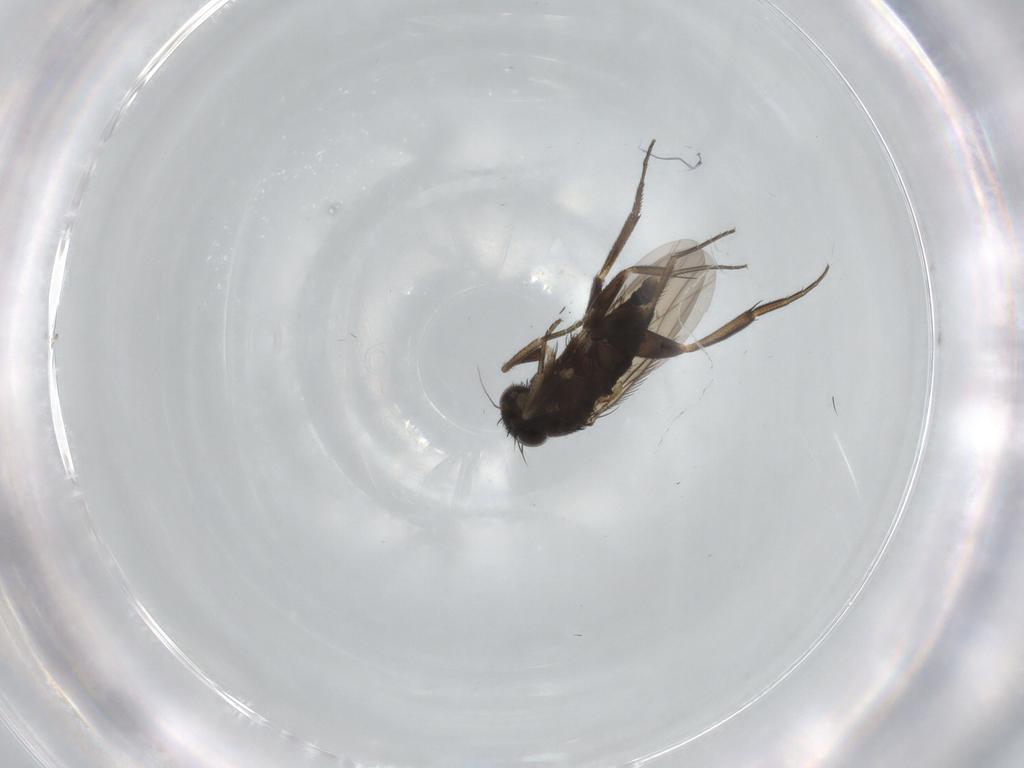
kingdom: Animalia
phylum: Arthropoda
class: Insecta
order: Diptera
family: Phoridae
